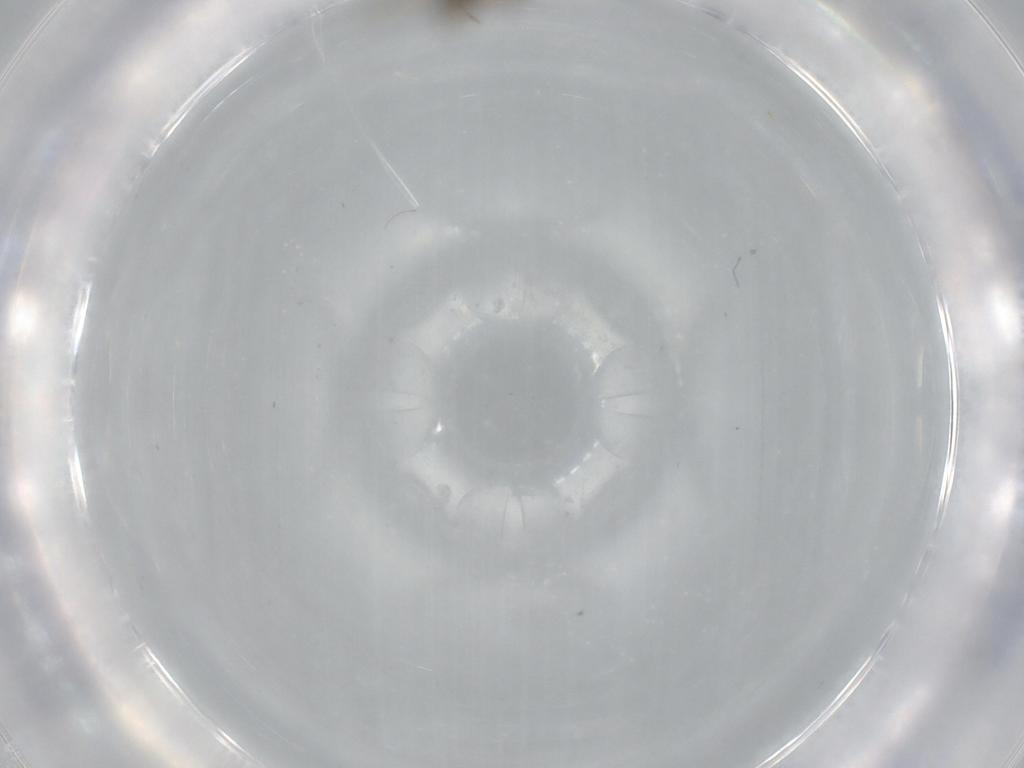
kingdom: Animalia
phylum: Arthropoda
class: Insecta
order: Diptera
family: Phoridae
